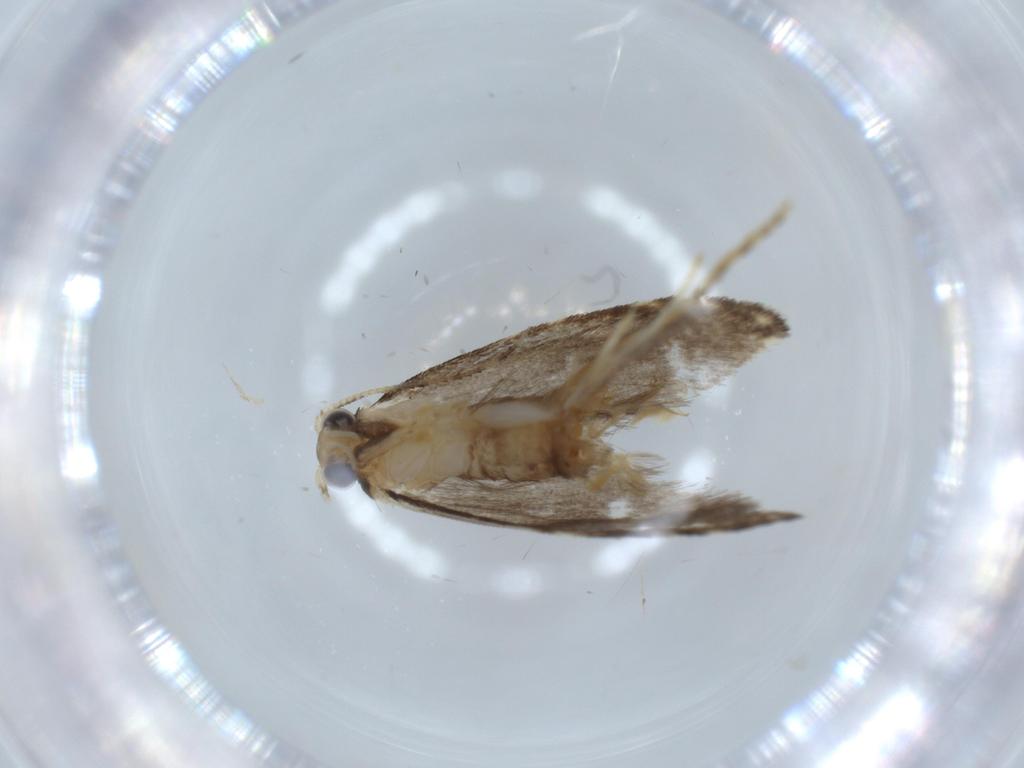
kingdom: Animalia
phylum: Arthropoda
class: Insecta
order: Lepidoptera
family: Tineidae
